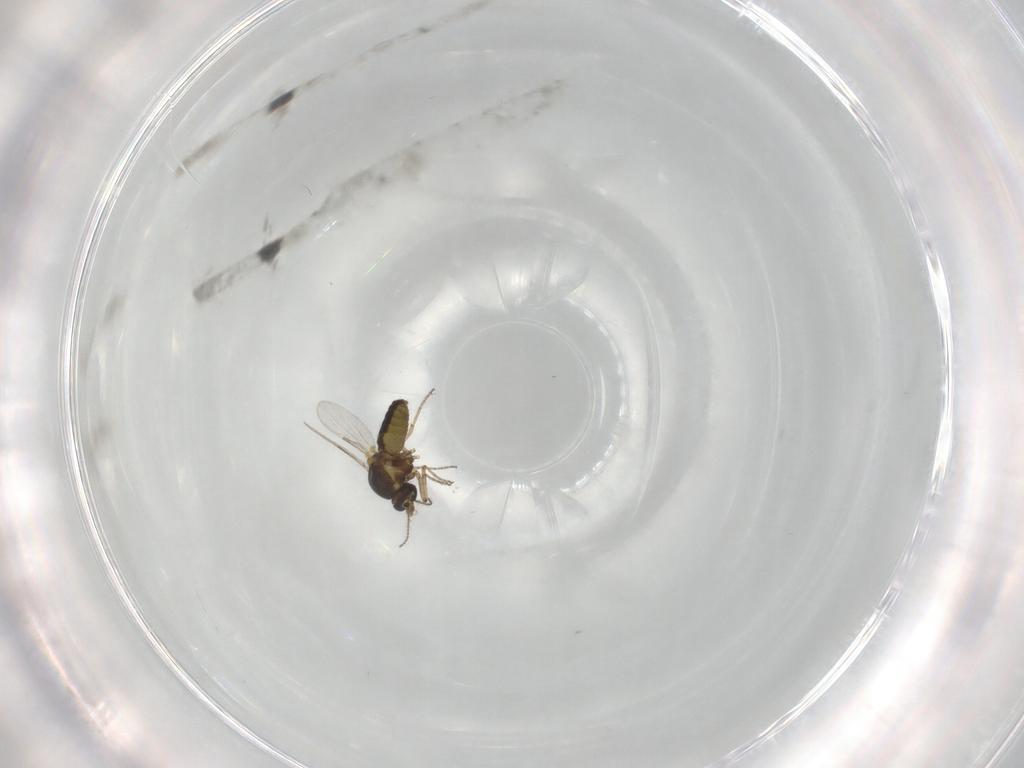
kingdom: Animalia
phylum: Arthropoda
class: Insecta
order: Diptera
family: Ceratopogonidae
